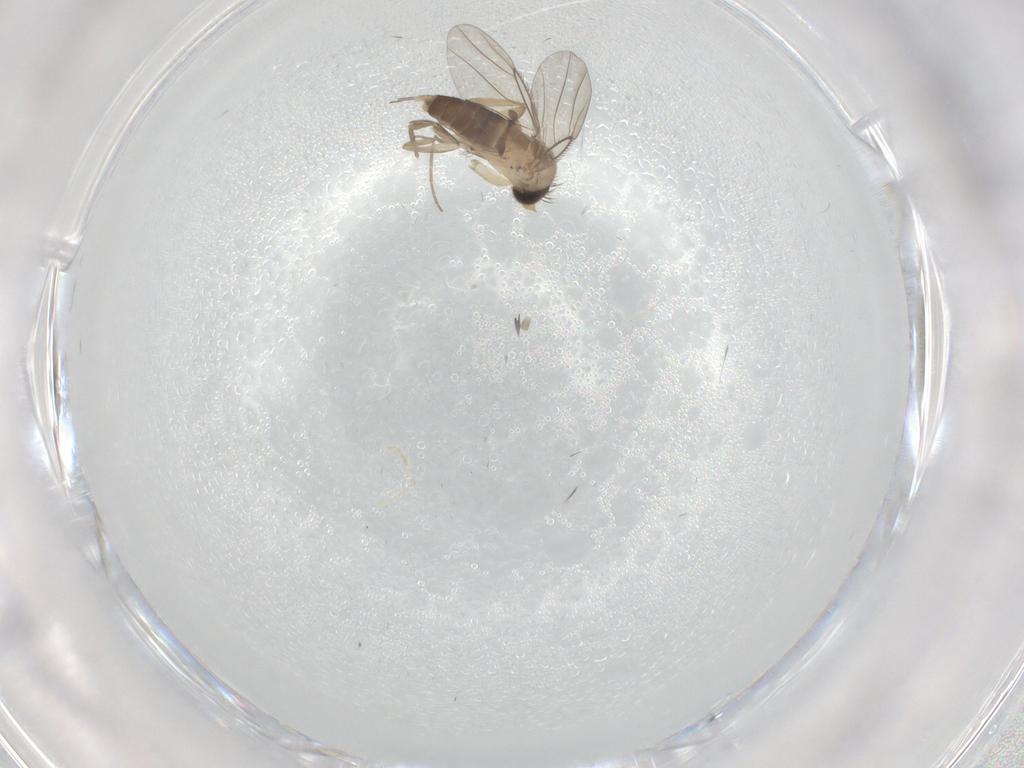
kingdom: Animalia
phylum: Arthropoda
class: Insecta
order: Diptera
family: Phoridae
